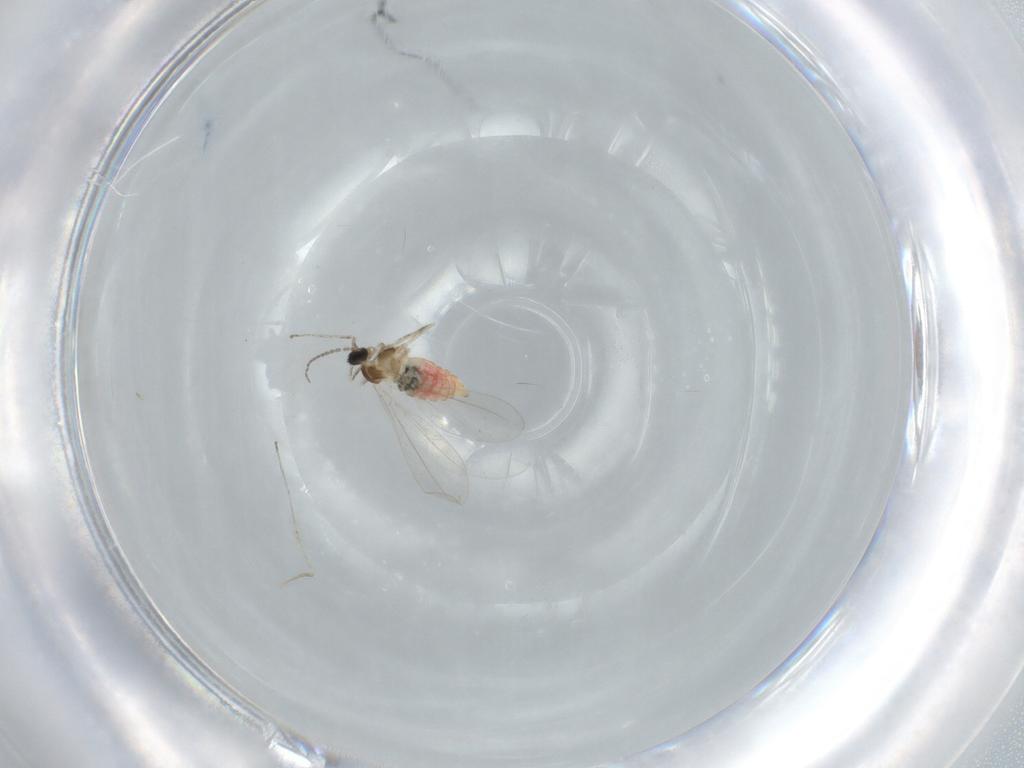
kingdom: Animalia
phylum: Arthropoda
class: Insecta
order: Diptera
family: Cecidomyiidae
